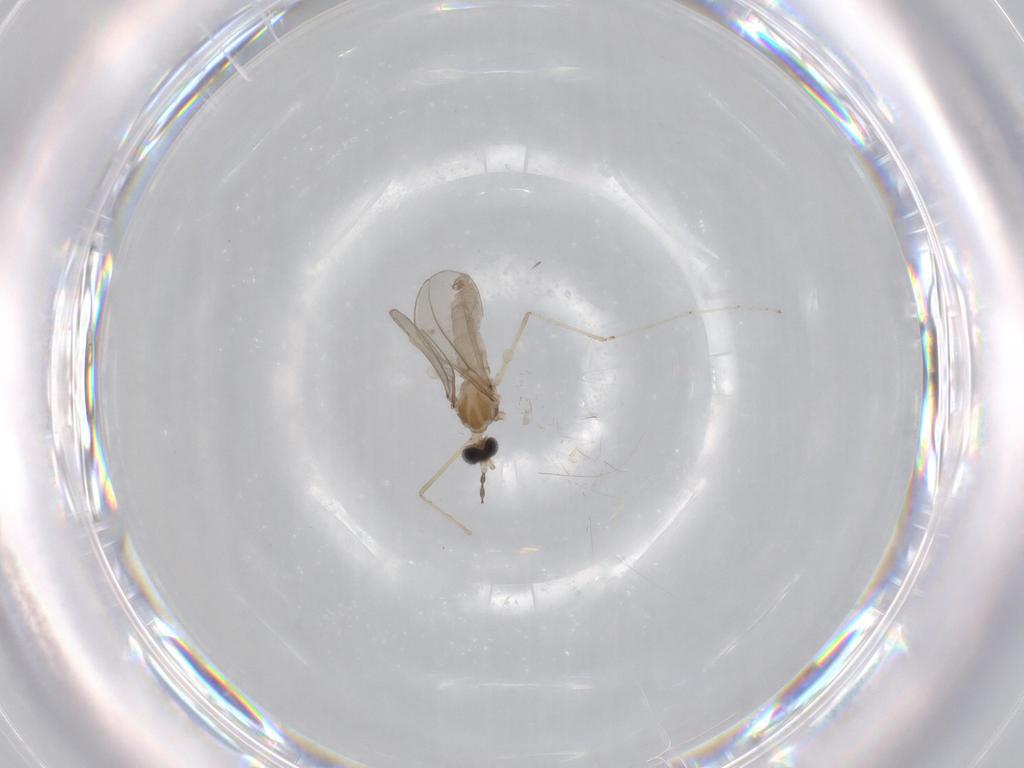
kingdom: Animalia
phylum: Arthropoda
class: Insecta
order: Diptera
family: Cecidomyiidae
